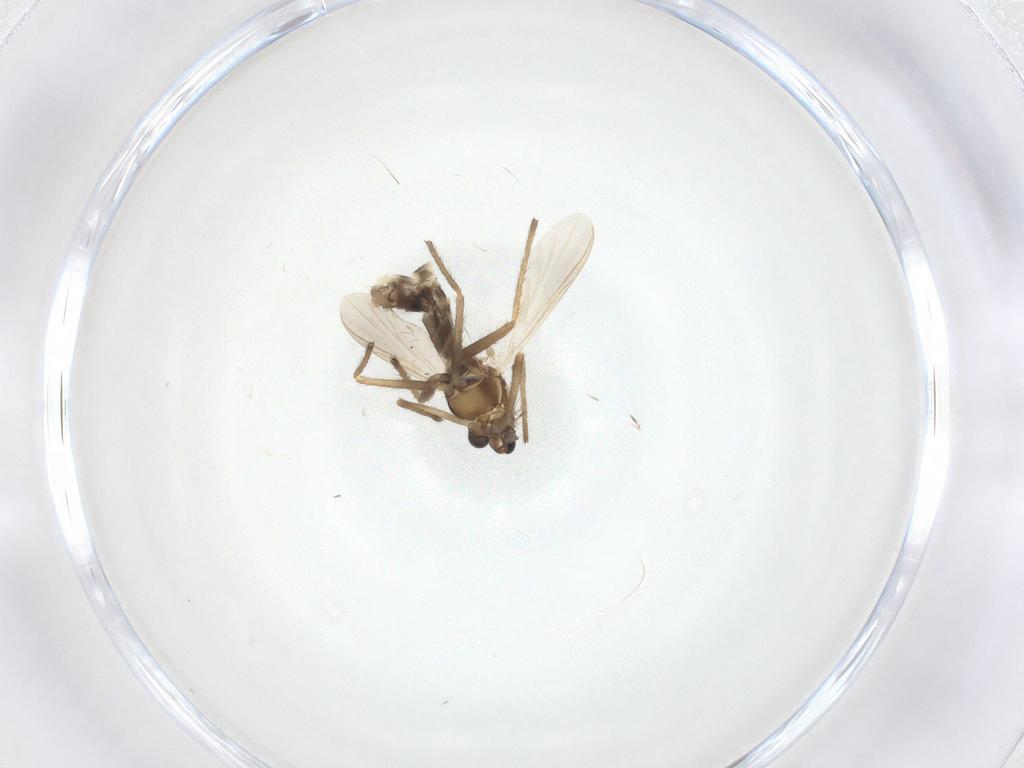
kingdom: Animalia
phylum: Arthropoda
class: Insecta
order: Diptera
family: Chironomidae
